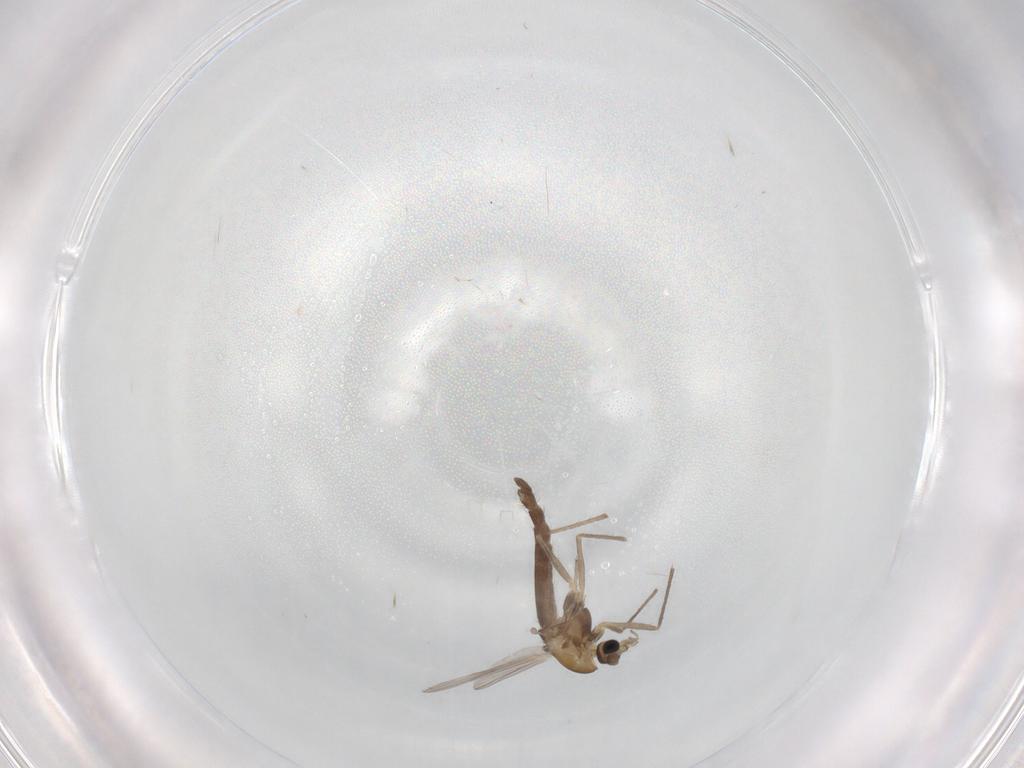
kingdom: Animalia
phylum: Arthropoda
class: Insecta
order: Diptera
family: Chironomidae
